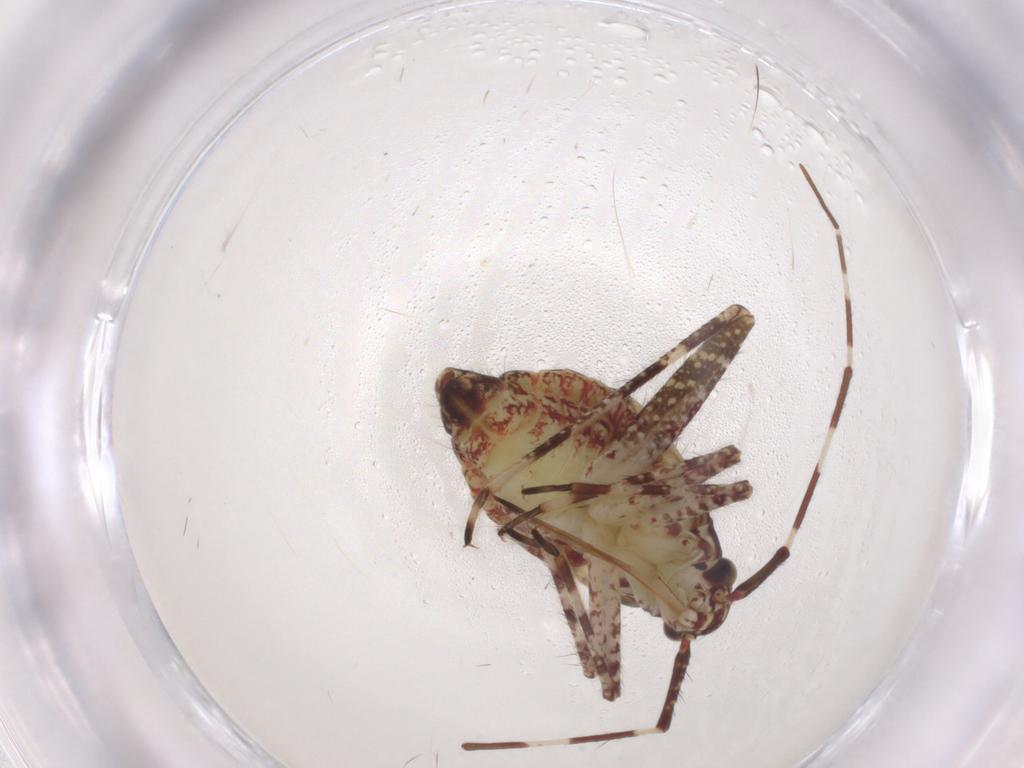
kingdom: Animalia
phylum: Arthropoda
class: Insecta
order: Hemiptera
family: Miridae
